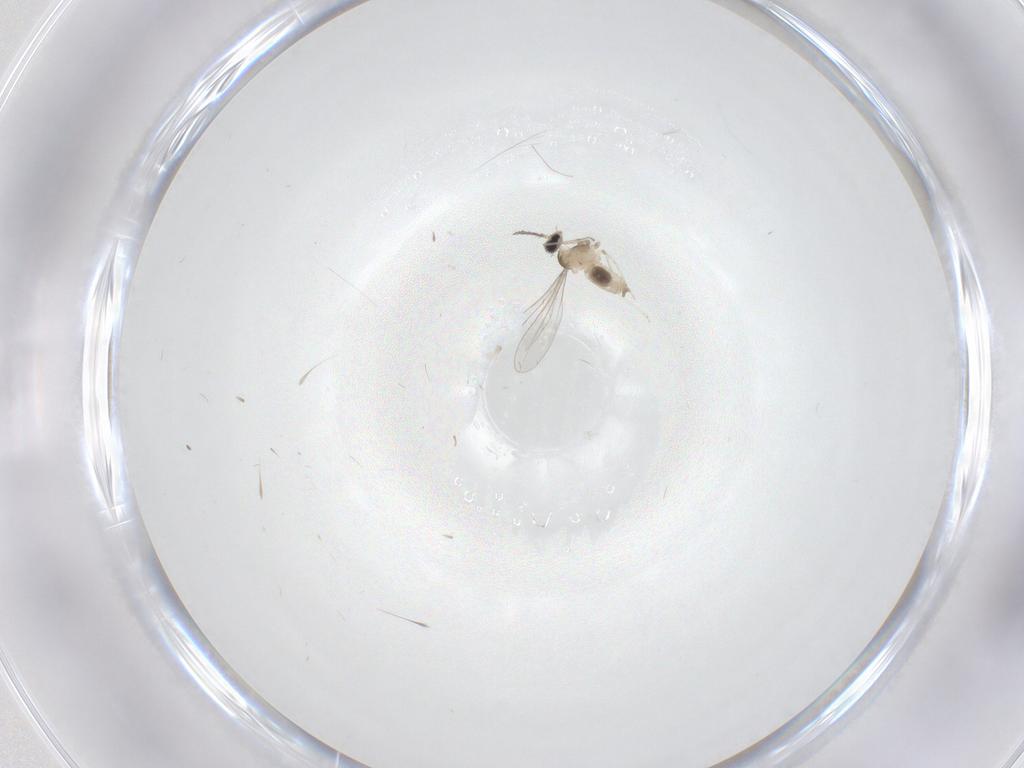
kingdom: Animalia
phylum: Arthropoda
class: Insecta
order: Diptera
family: Cecidomyiidae
